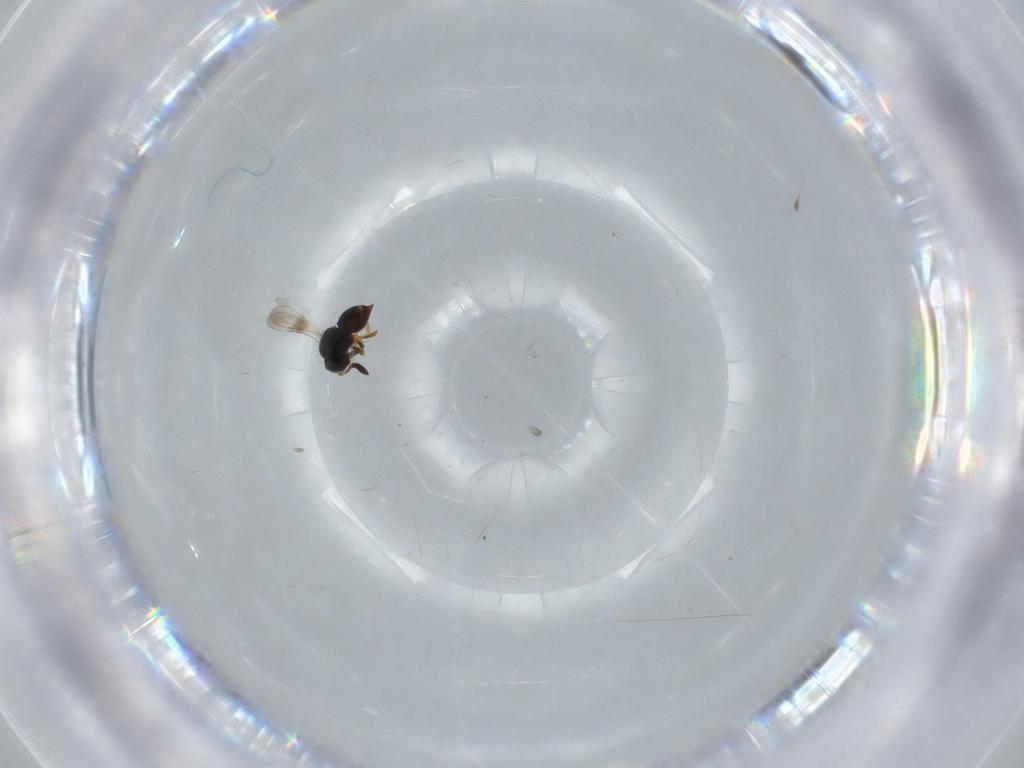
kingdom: Animalia
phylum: Arthropoda
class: Insecta
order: Hymenoptera
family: Ceraphronidae
